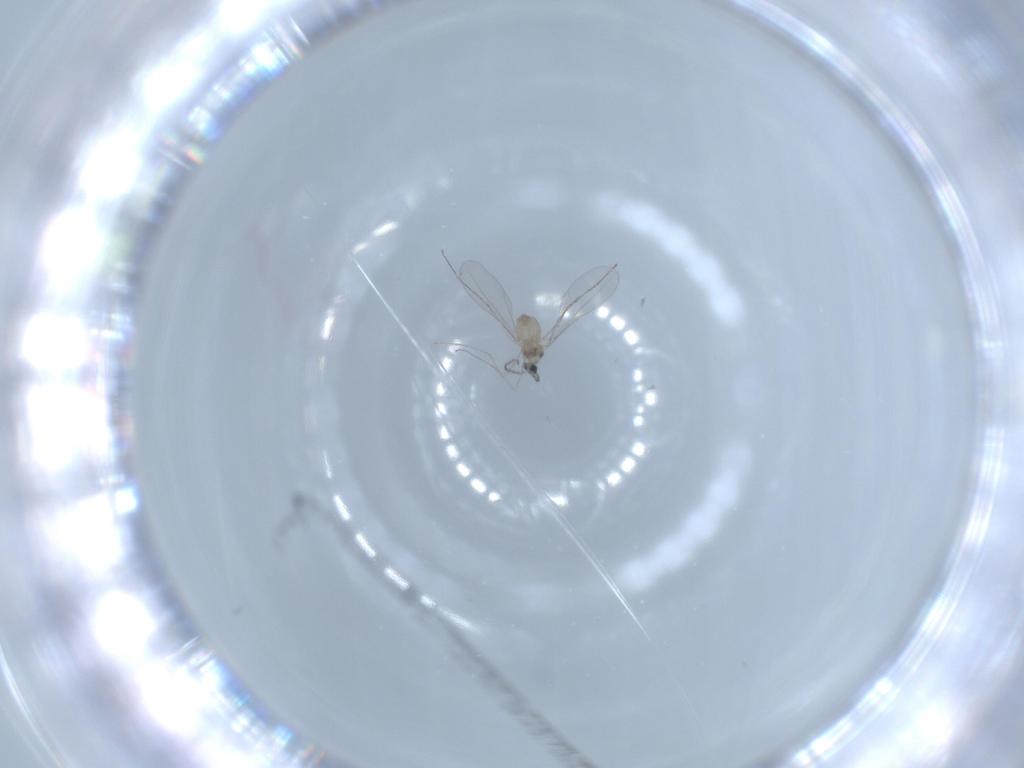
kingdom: Animalia
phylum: Arthropoda
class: Insecta
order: Diptera
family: Cecidomyiidae
